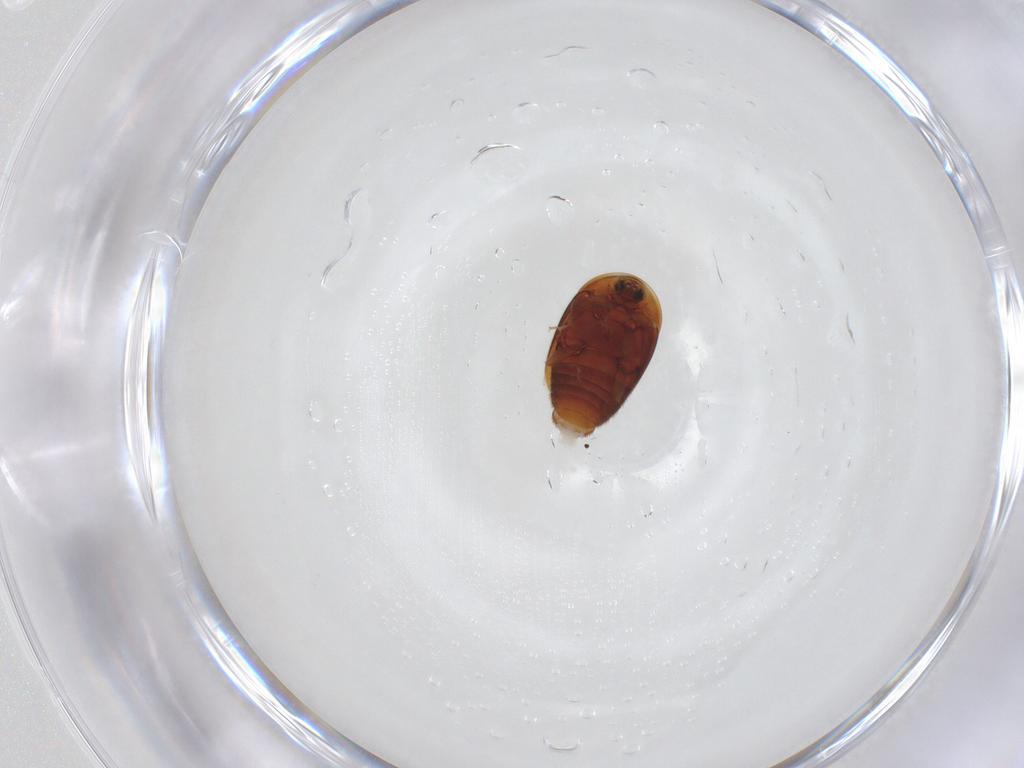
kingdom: Animalia
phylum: Arthropoda
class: Insecta
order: Coleoptera
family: Corylophidae
